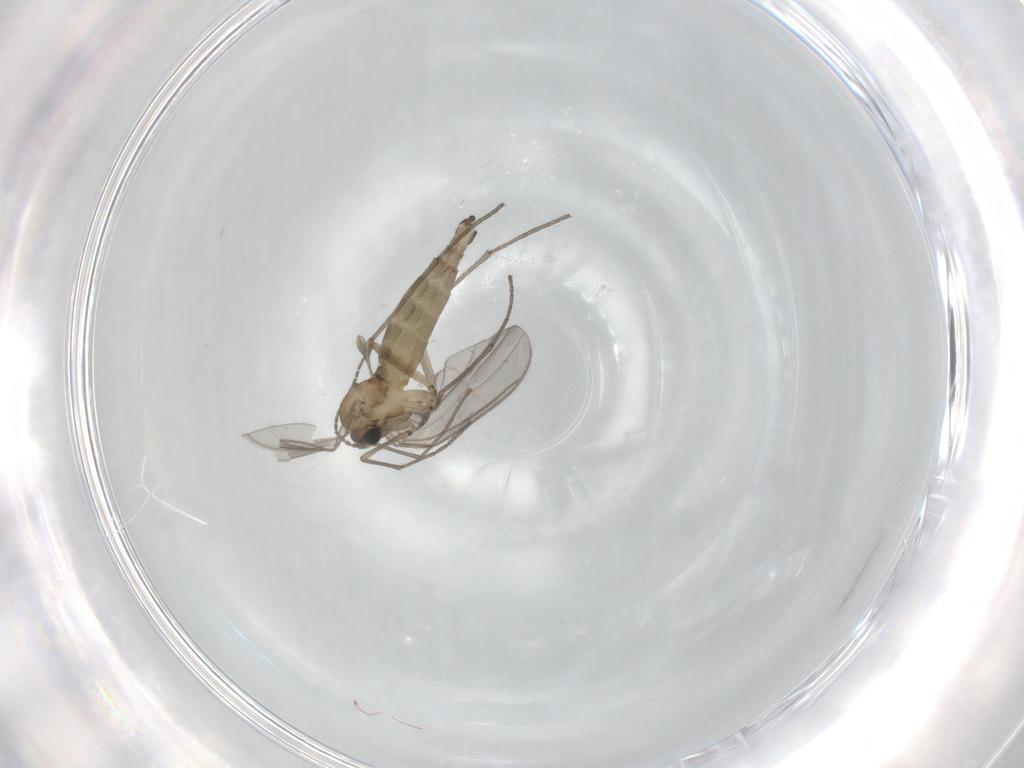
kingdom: Animalia
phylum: Arthropoda
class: Insecta
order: Diptera
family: Sciaridae
